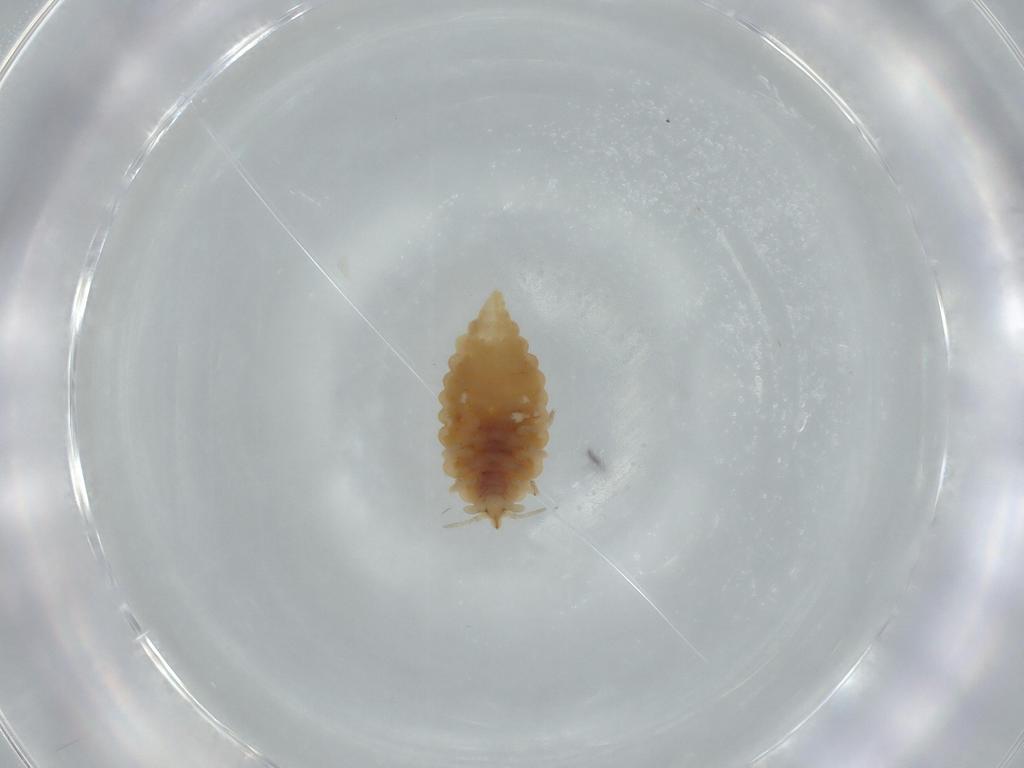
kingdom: Animalia
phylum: Arthropoda
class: Insecta
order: Neuroptera
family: Coniopterygidae
